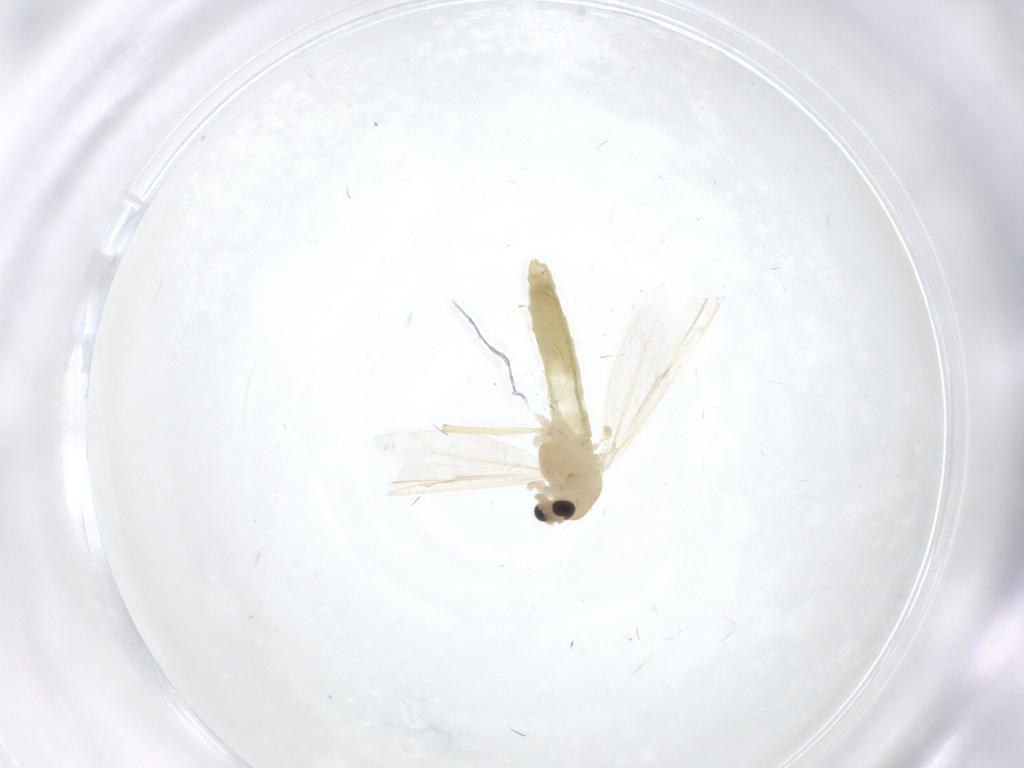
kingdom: Animalia
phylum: Arthropoda
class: Insecta
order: Diptera
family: Chironomidae
